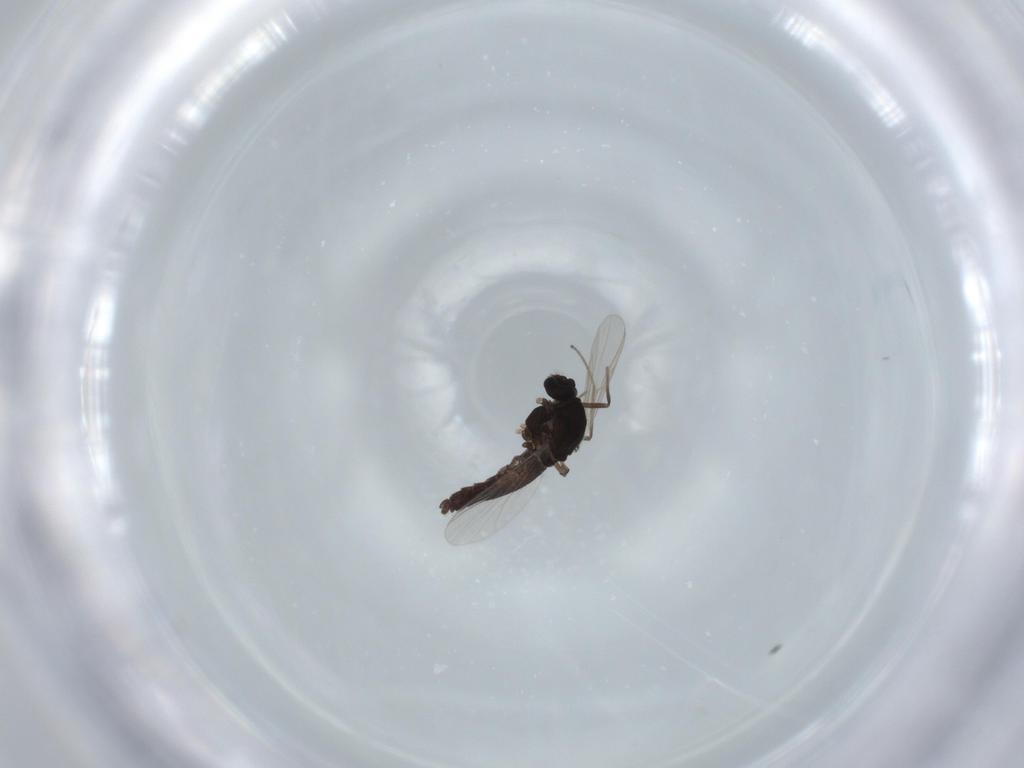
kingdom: Animalia
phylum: Arthropoda
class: Insecta
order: Diptera
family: Chironomidae
